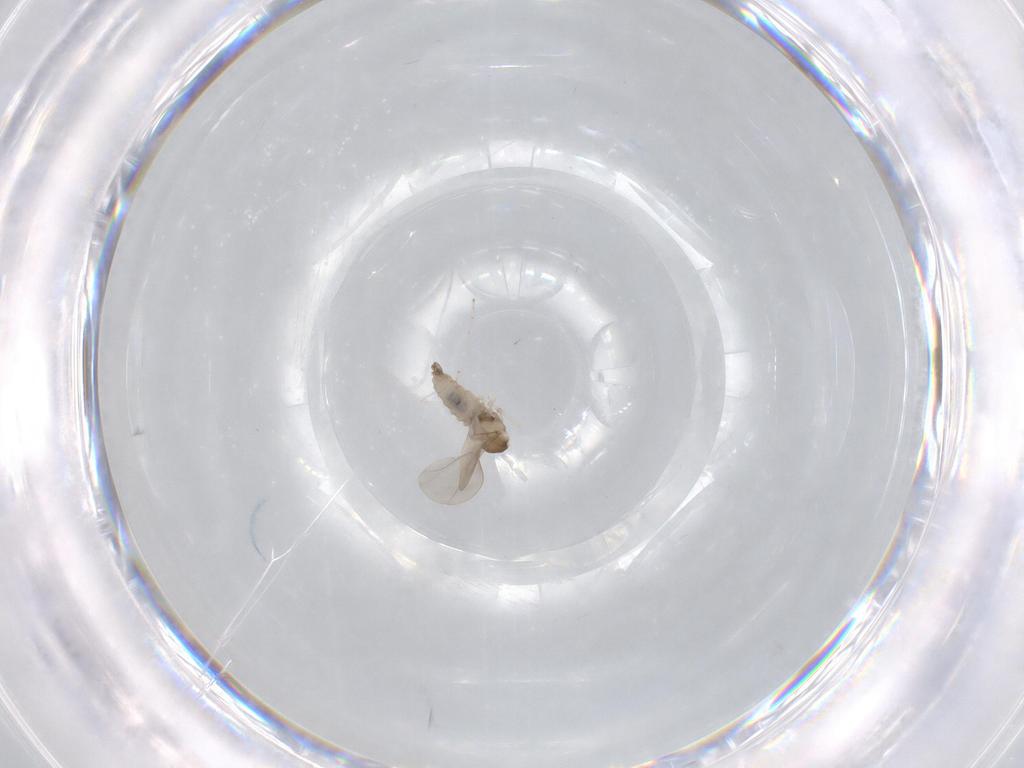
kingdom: Animalia
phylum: Arthropoda
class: Insecta
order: Diptera
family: Cecidomyiidae
